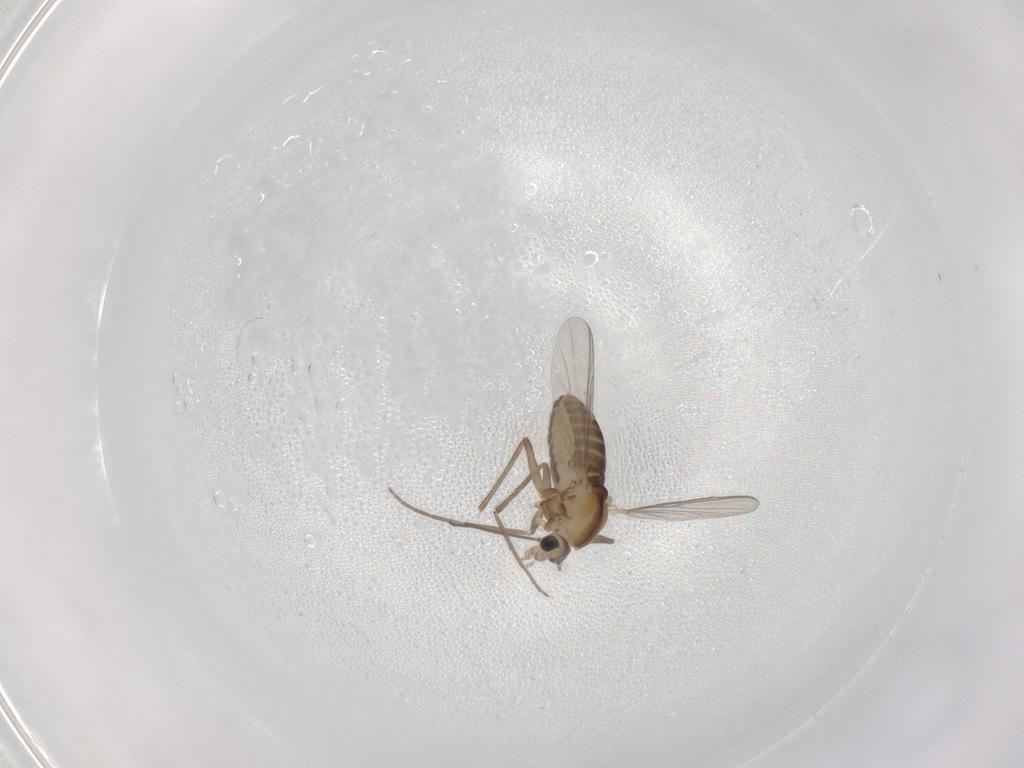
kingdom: Animalia
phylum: Arthropoda
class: Insecta
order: Diptera
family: Chironomidae
